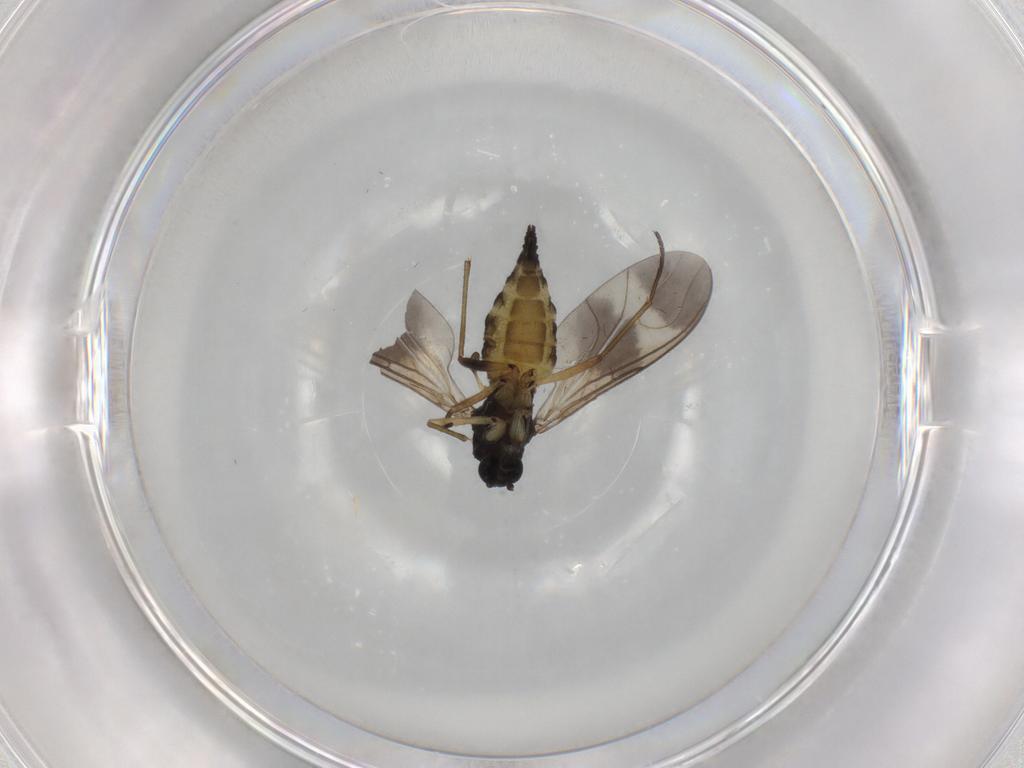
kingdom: Animalia
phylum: Arthropoda
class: Insecta
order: Diptera
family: Sciaridae
